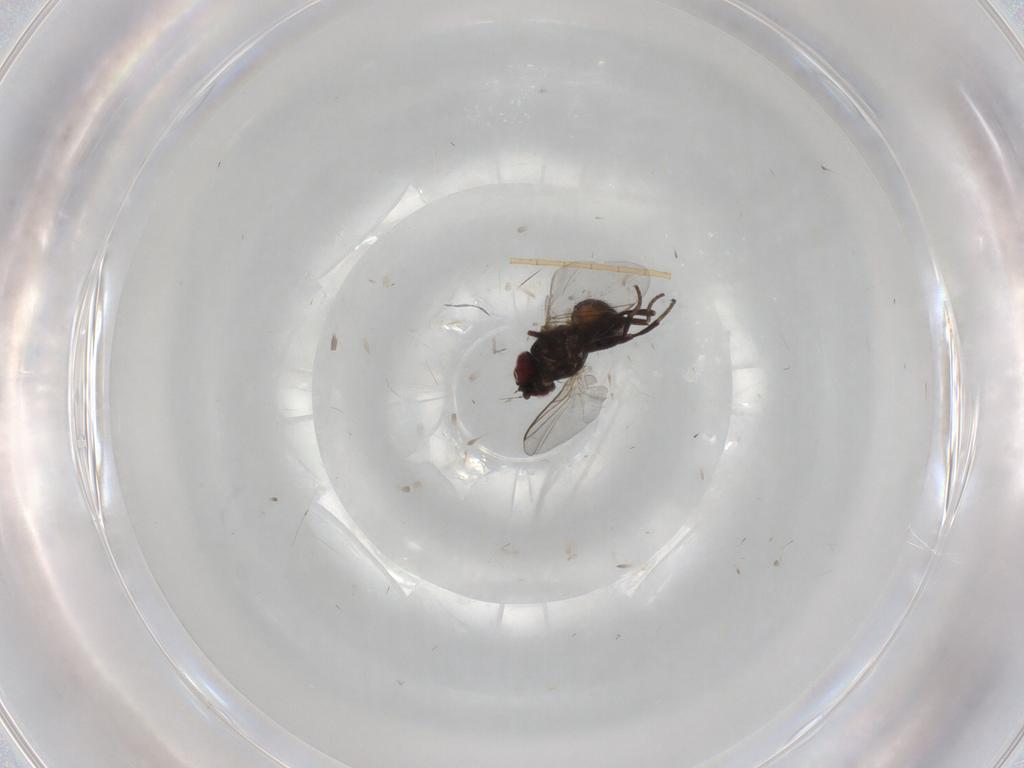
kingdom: Animalia
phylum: Arthropoda
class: Insecta
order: Diptera
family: Agromyzidae
